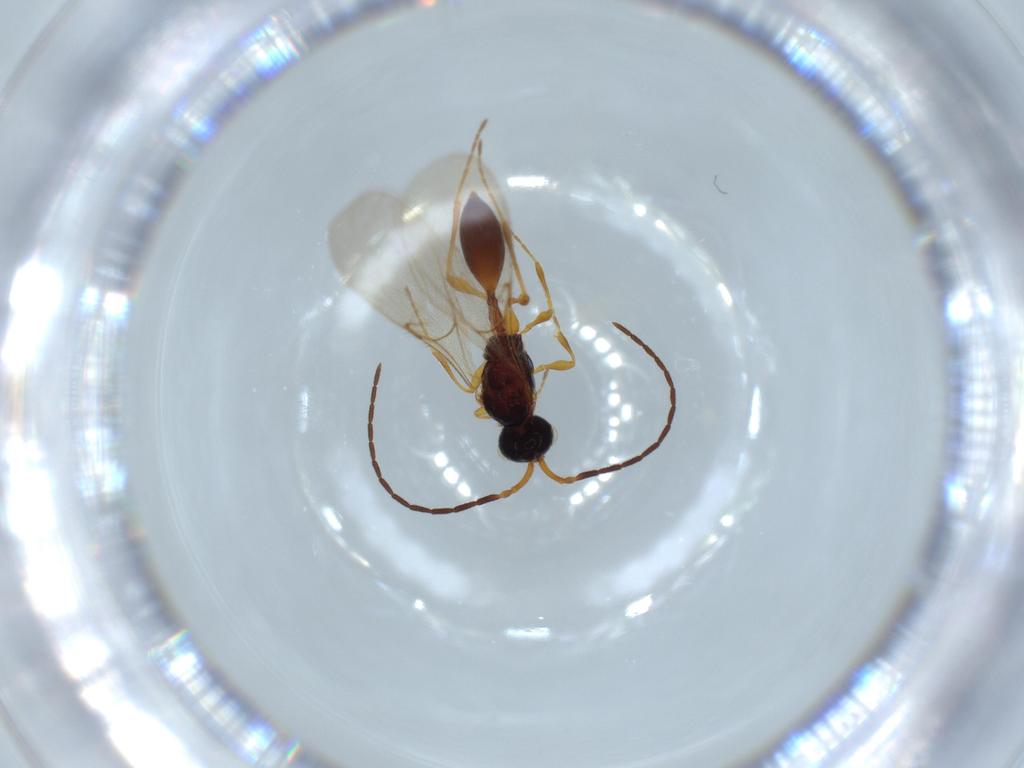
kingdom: Animalia
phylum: Arthropoda
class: Insecta
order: Hymenoptera
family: Diapriidae
